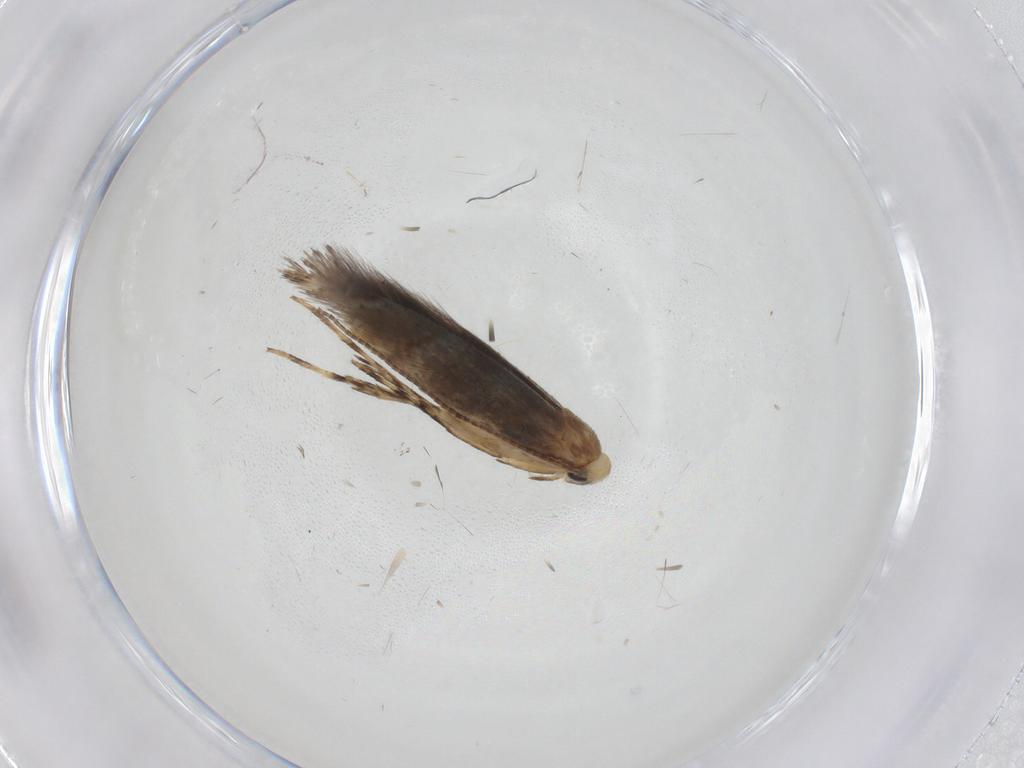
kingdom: Animalia
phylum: Arthropoda
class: Insecta
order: Lepidoptera
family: Gracillariidae
